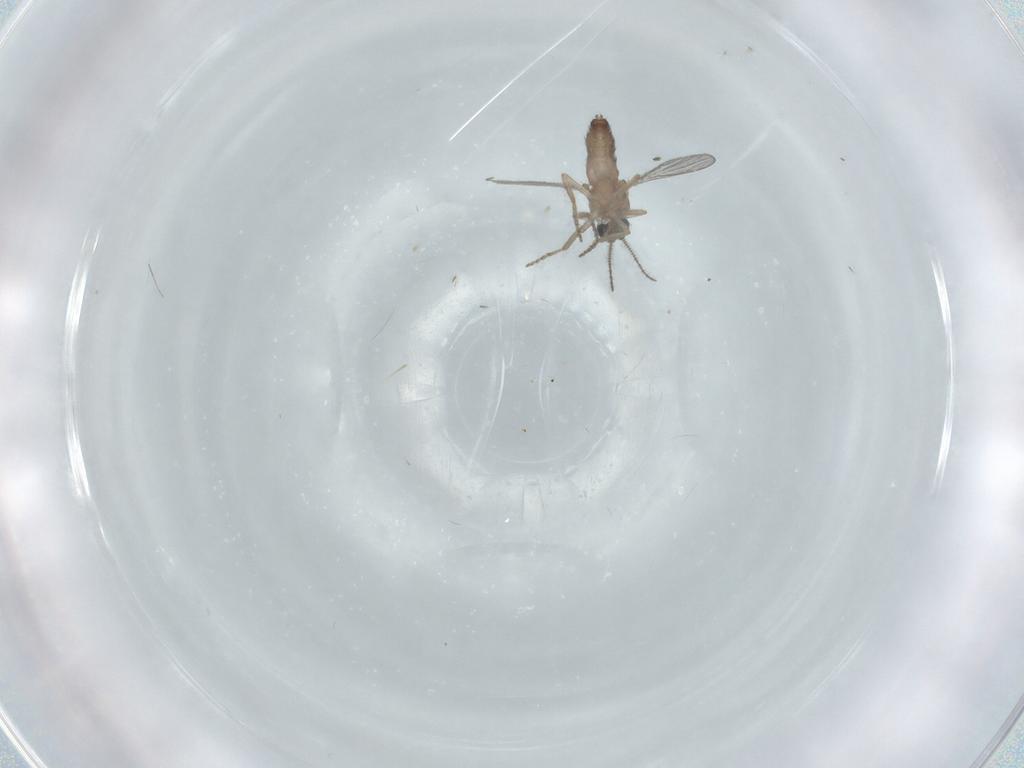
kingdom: Animalia
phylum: Arthropoda
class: Insecta
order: Diptera
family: Ceratopogonidae
